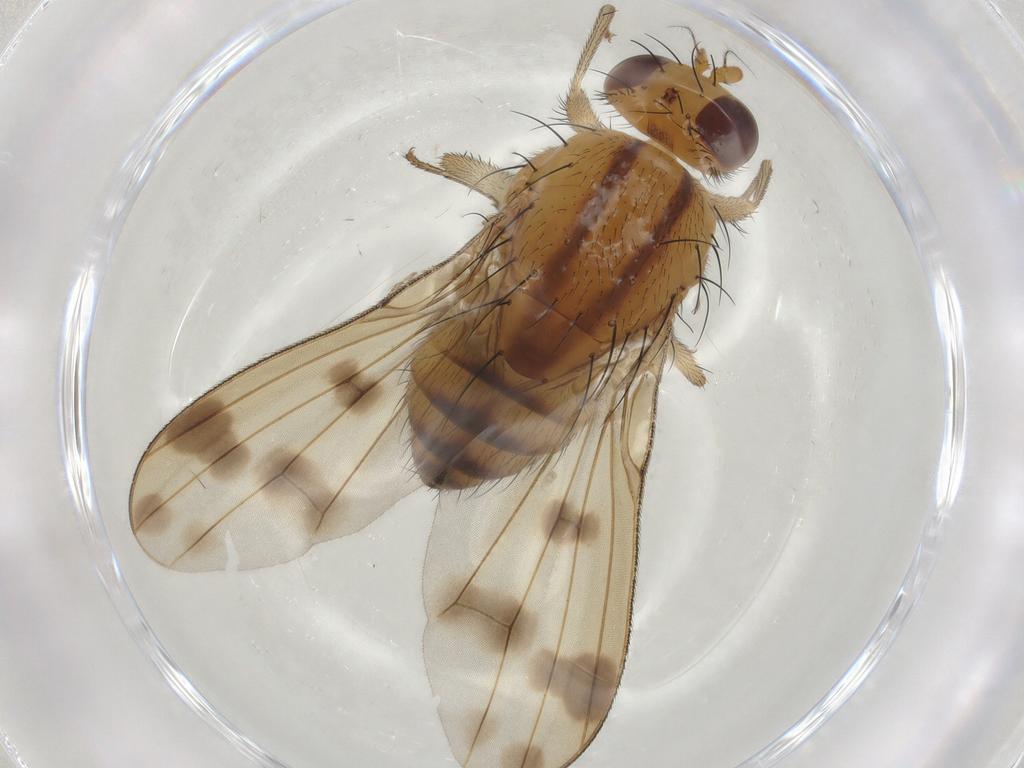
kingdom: Animalia
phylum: Arthropoda
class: Insecta
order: Diptera
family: Lauxaniidae
